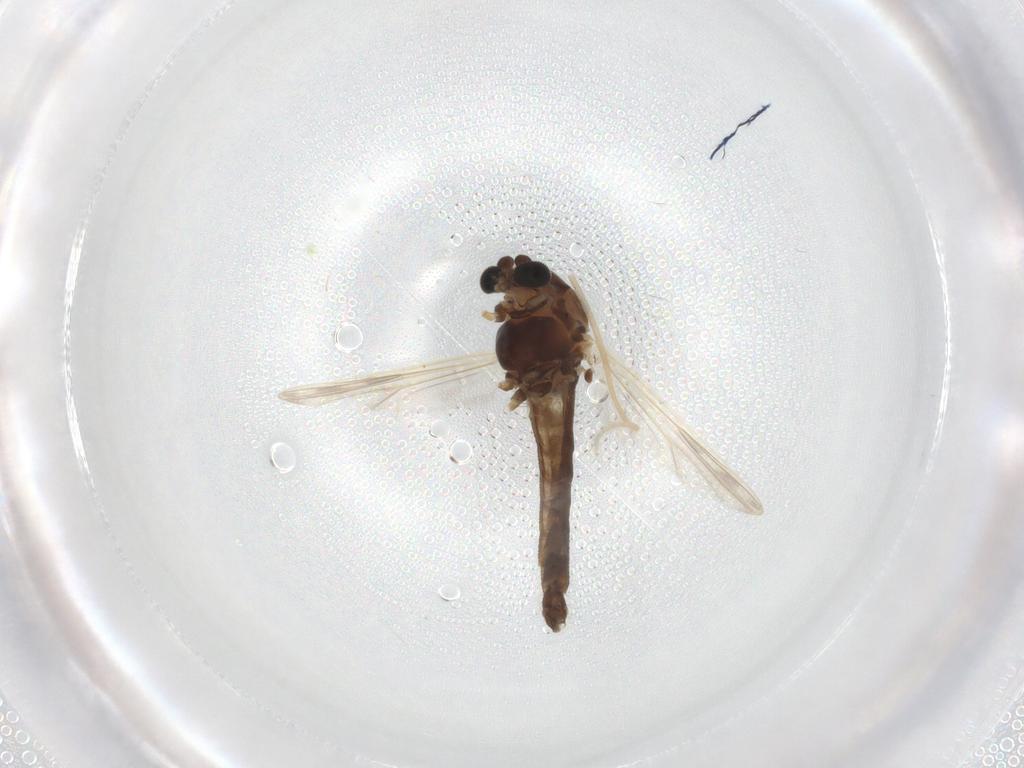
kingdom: Animalia
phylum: Arthropoda
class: Insecta
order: Diptera
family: Chironomidae
